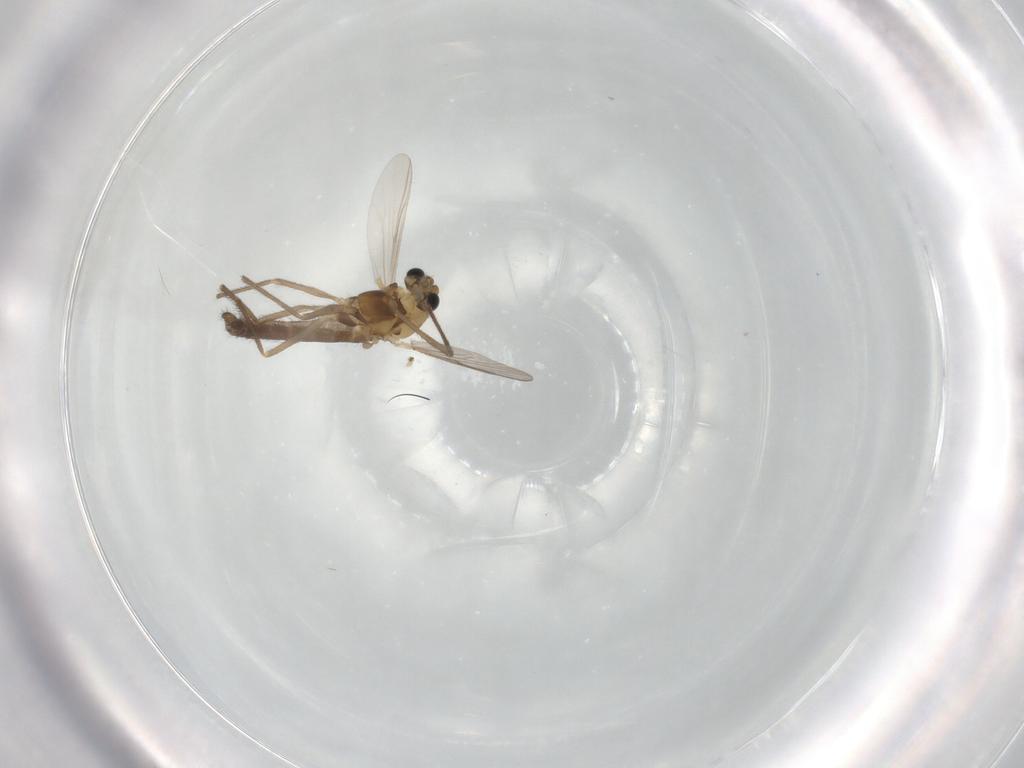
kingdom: Animalia
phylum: Arthropoda
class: Insecta
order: Diptera
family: Chironomidae
